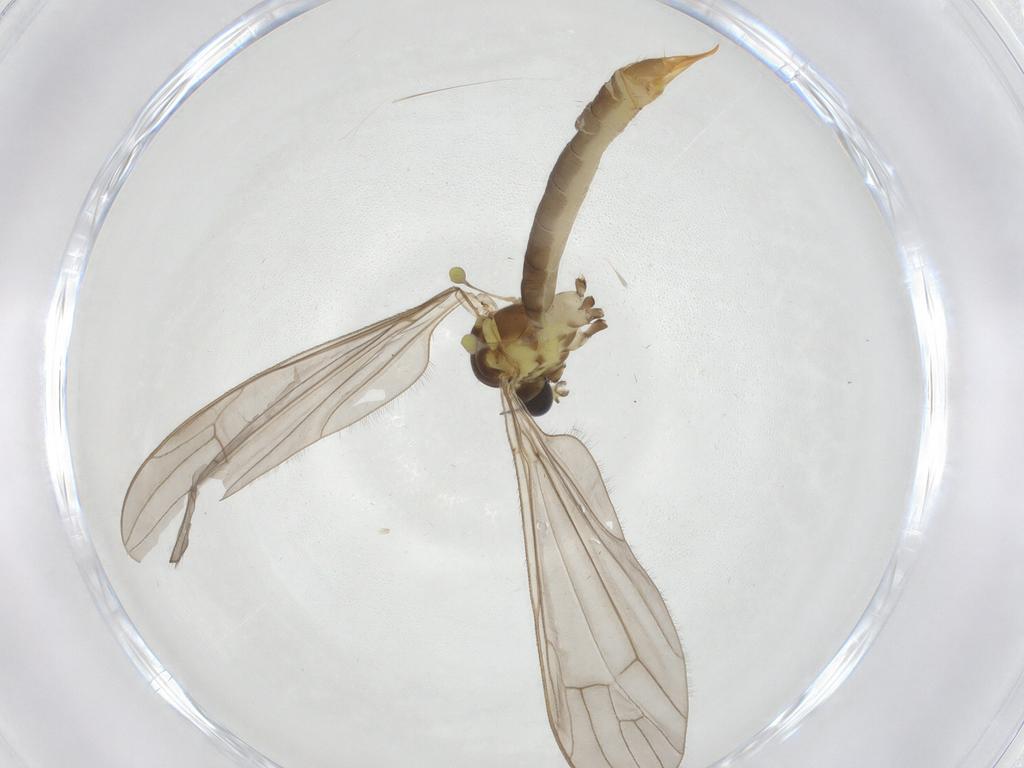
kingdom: Animalia
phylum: Arthropoda
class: Insecta
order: Diptera
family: Limoniidae
